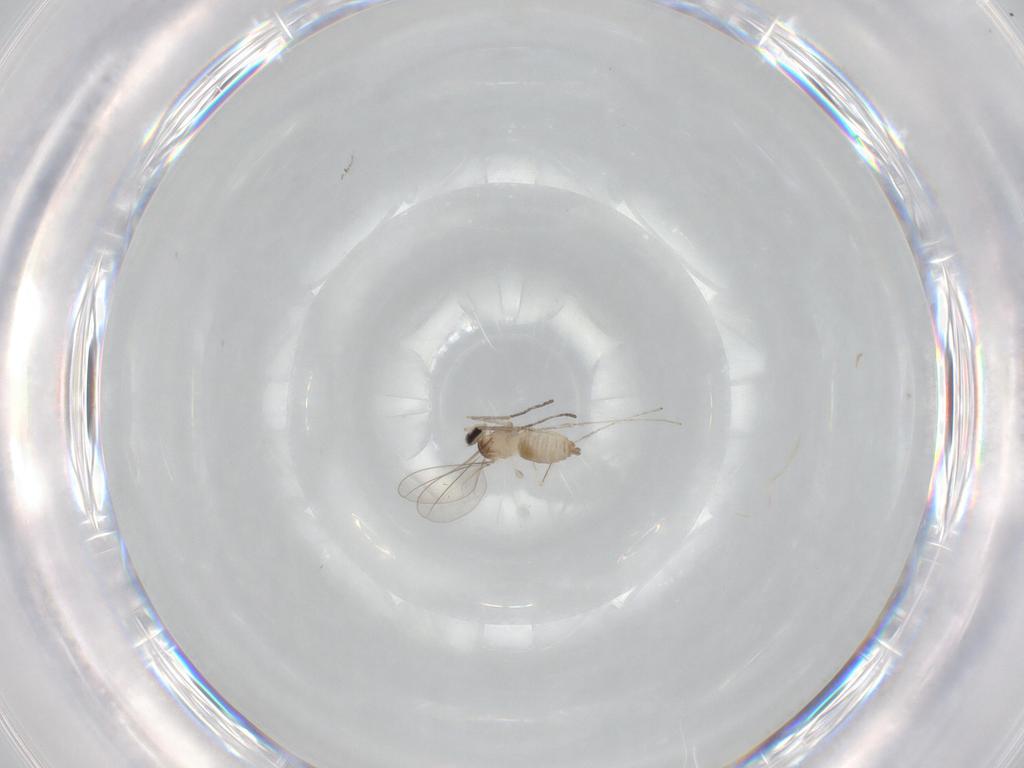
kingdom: Animalia
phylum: Arthropoda
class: Insecta
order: Diptera
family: Cecidomyiidae
